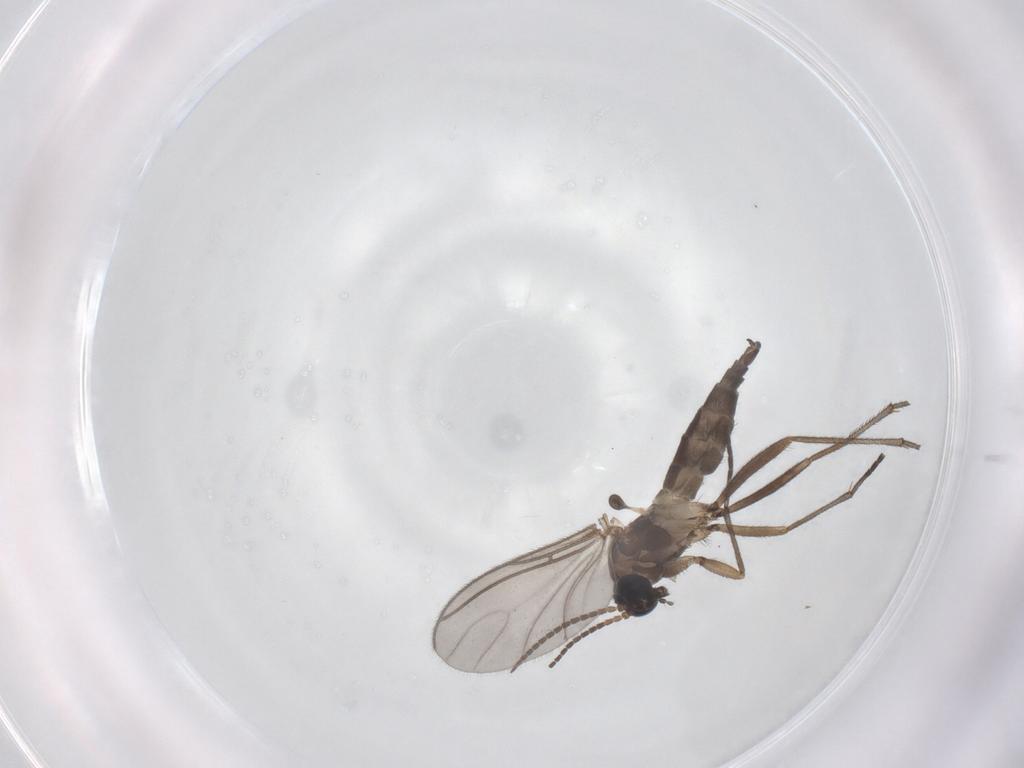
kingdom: Animalia
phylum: Arthropoda
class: Insecta
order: Diptera
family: Sciaridae
